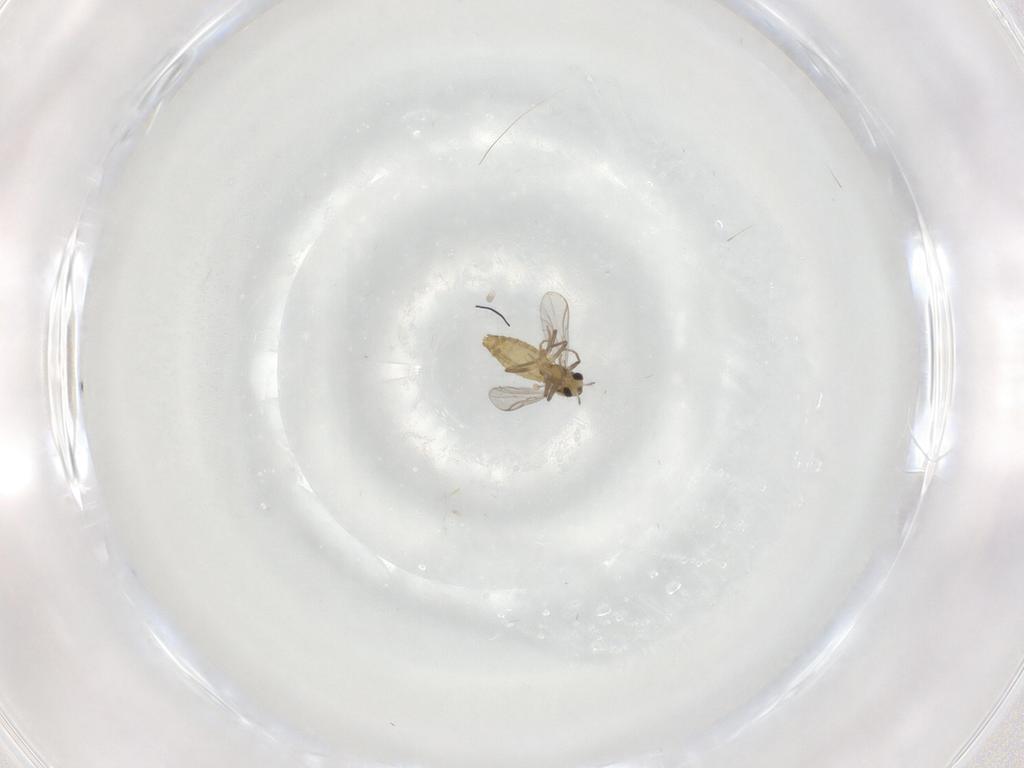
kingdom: Animalia
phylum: Arthropoda
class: Insecta
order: Diptera
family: Chironomidae
